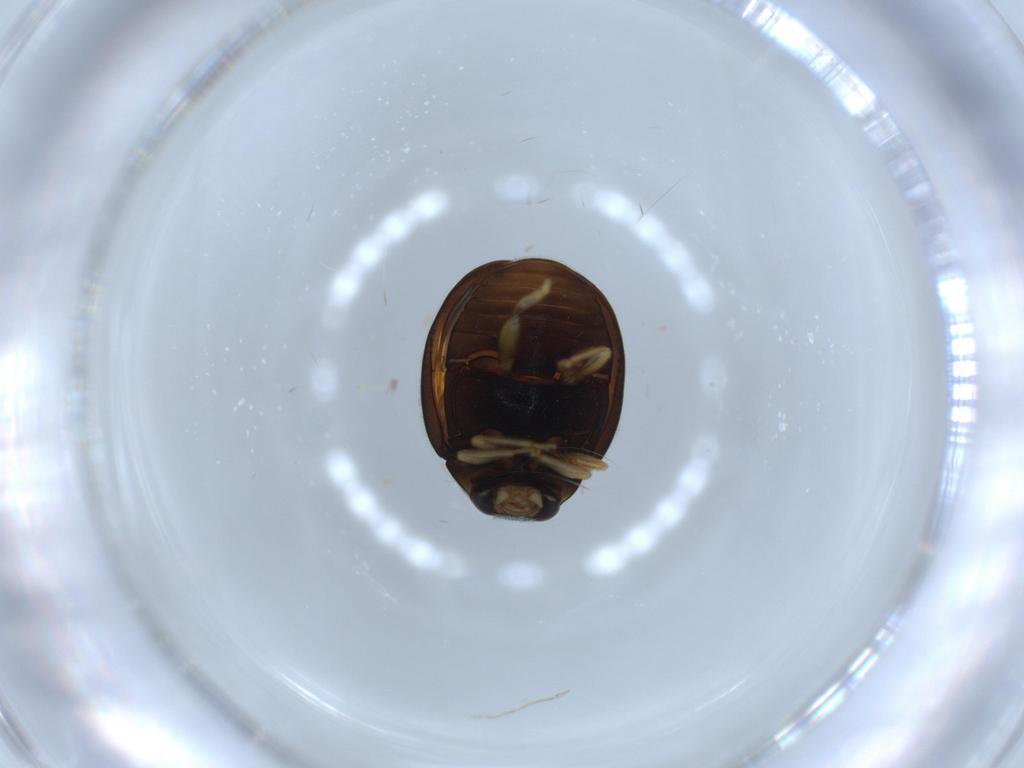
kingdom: Animalia
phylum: Arthropoda
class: Insecta
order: Coleoptera
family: Coccinellidae
